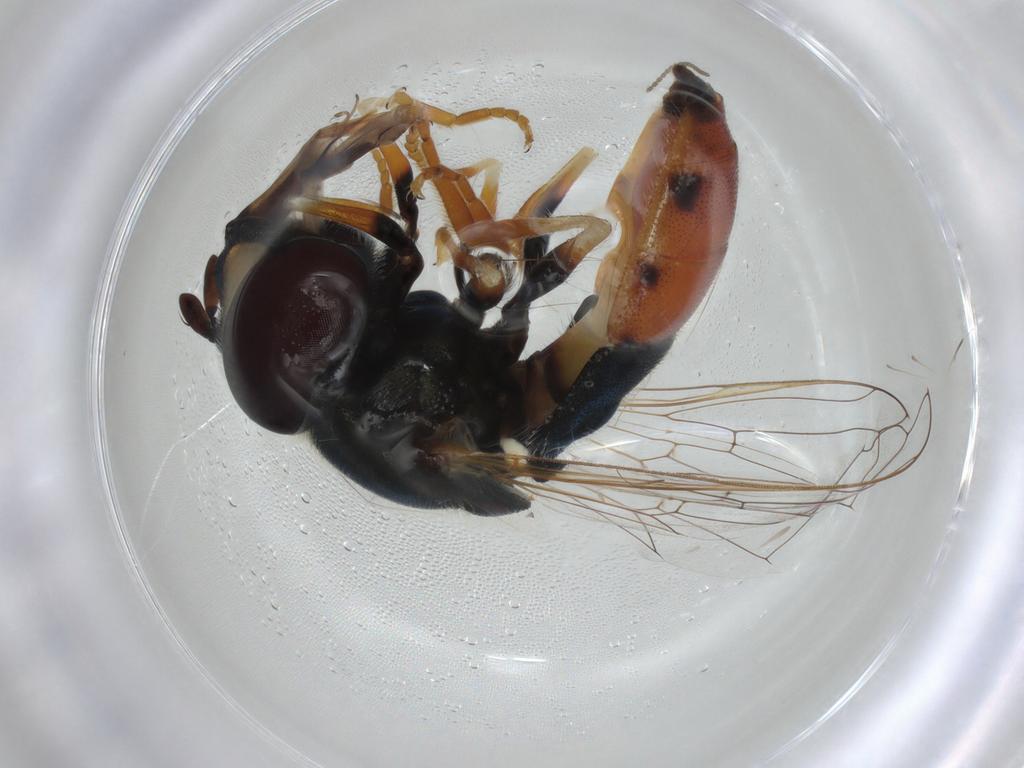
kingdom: Animalia
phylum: Arthropoda
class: Insecta
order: Diptera
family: Syrphidae
